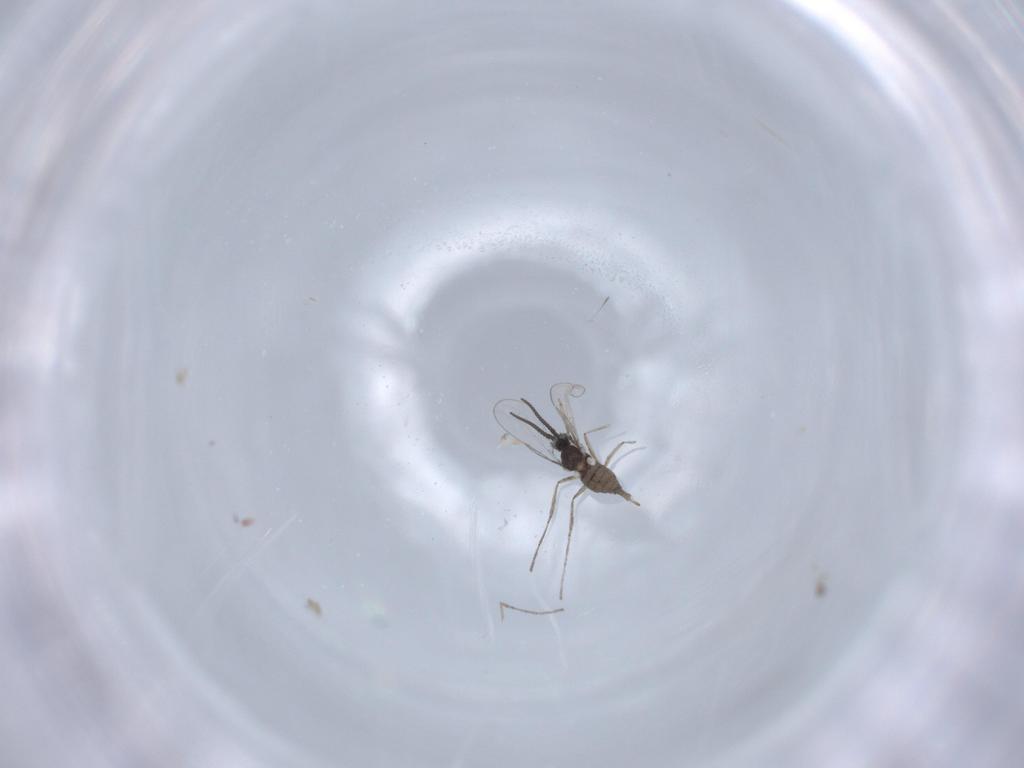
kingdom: Animalia
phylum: Arthropoda
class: Insecta
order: Diptera
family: Cecidomyiidae
